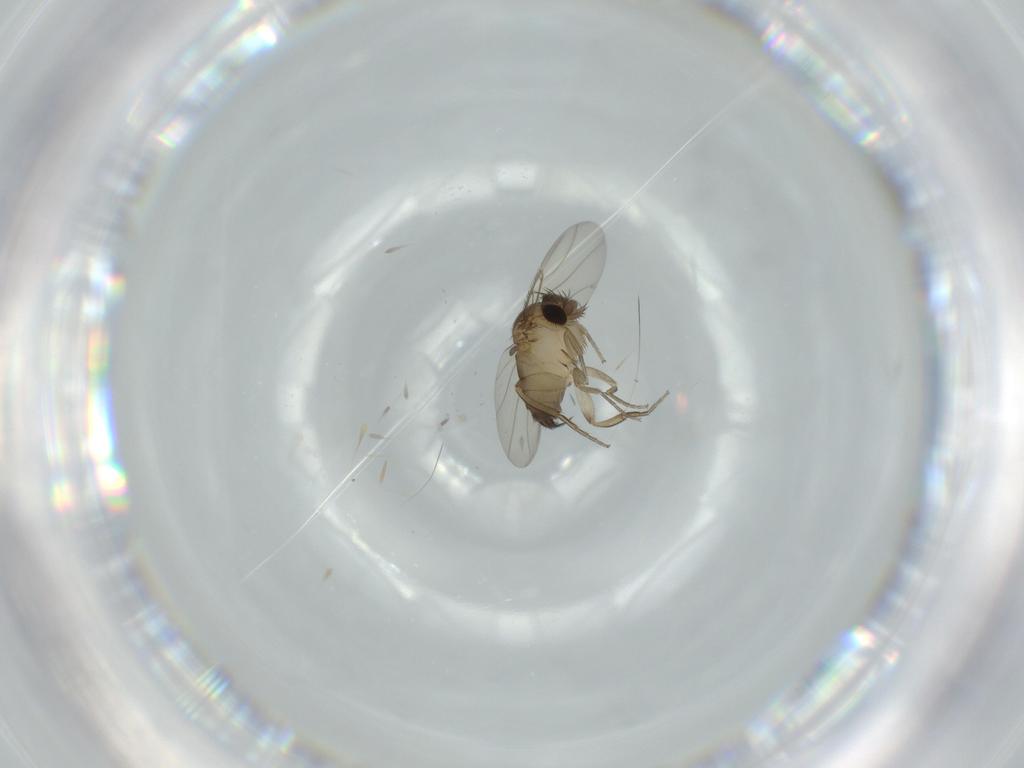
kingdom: Animalia
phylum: Arthropoda
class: Insecta
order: Diptera
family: Phoridae
